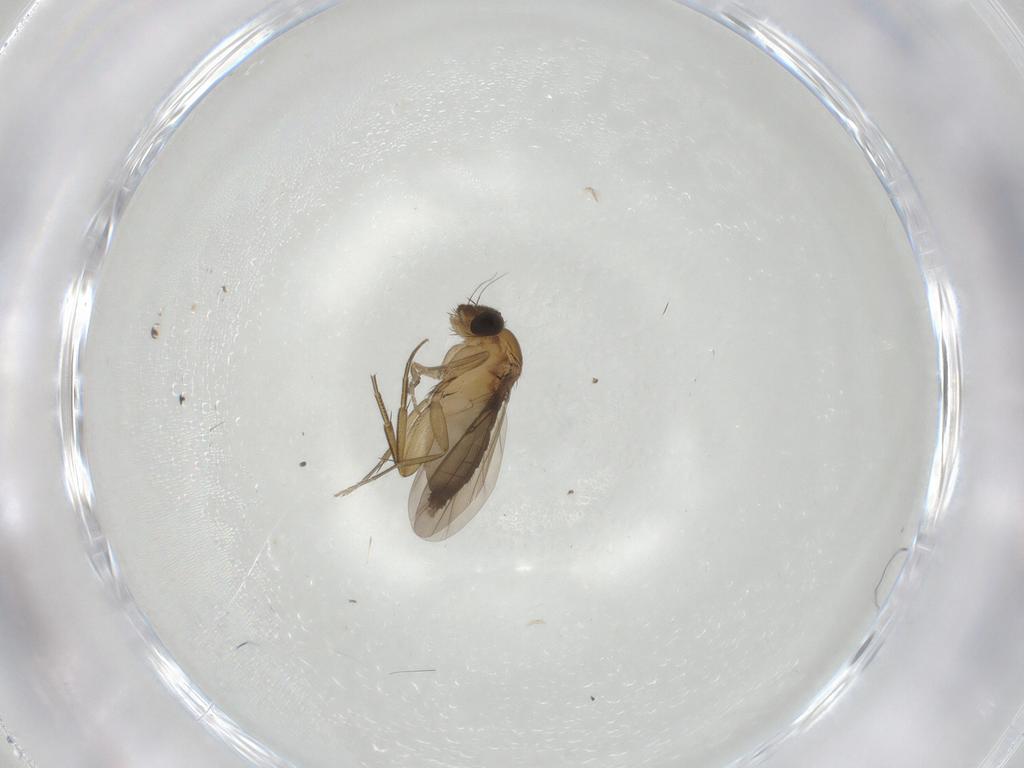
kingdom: Animalia
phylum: Arthropoda
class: Insecta
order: Diptera
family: Phoridae
